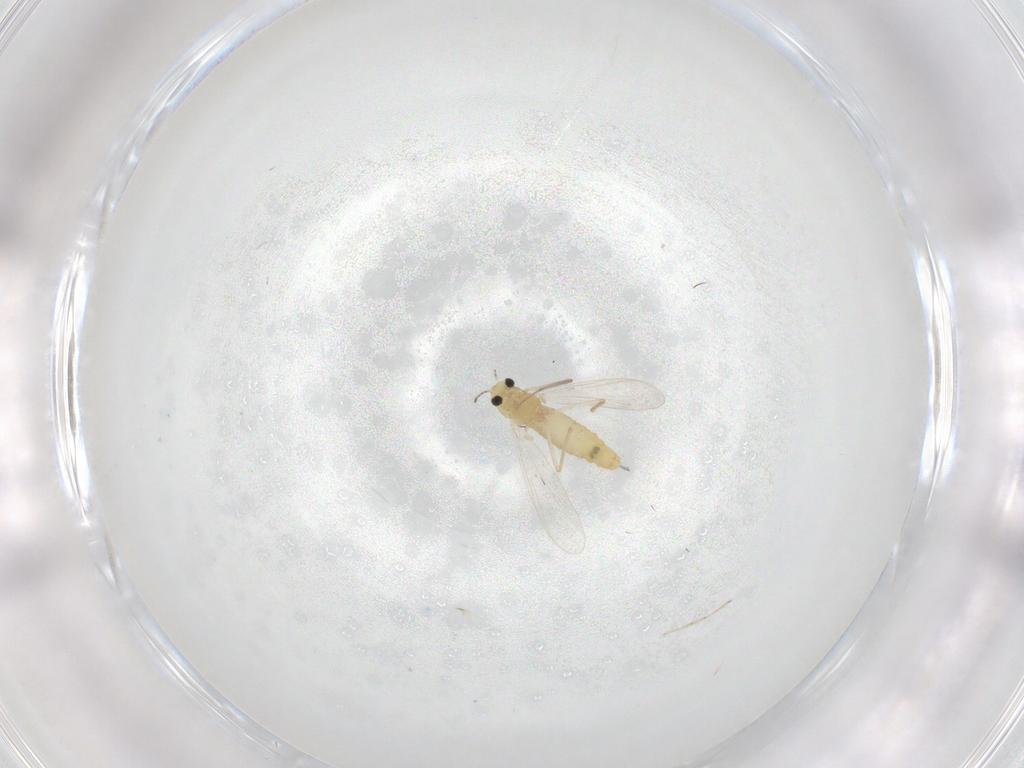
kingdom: Animalia
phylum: Arthropoda
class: Insecta
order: Diptera
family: Chironomidae
